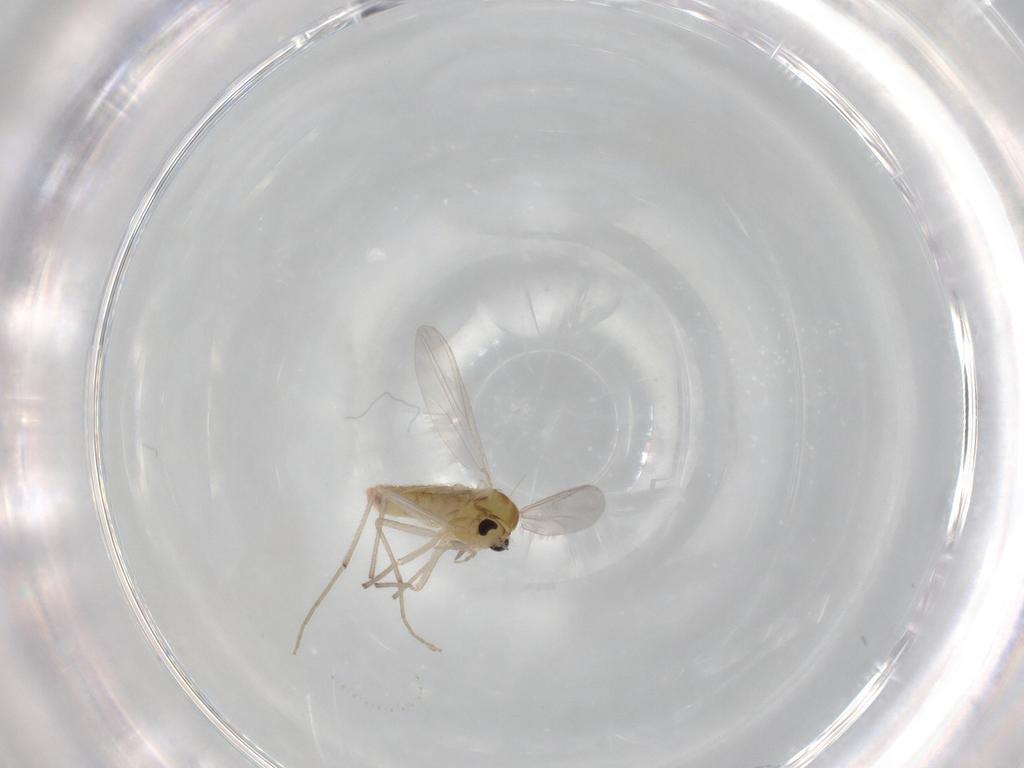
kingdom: Animalia
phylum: Arthropoda
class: Insecta
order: Diptera
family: Chironomidae
